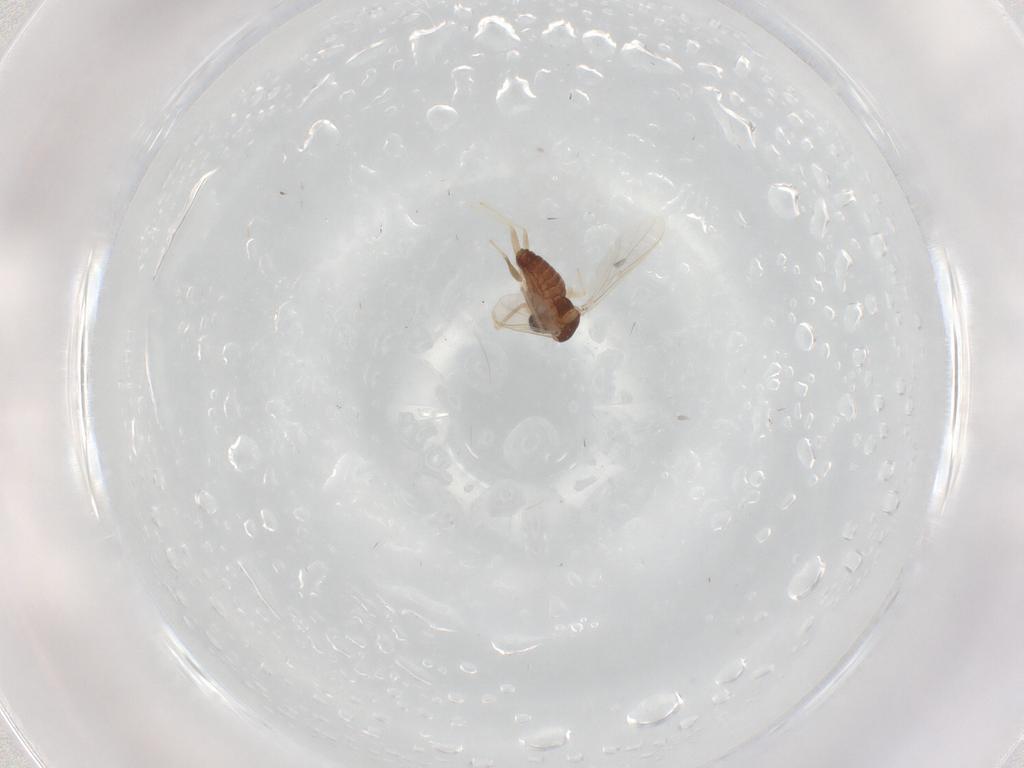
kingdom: Animalia
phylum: Arthropoda
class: Insecta
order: Diptera
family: Chironomidae
